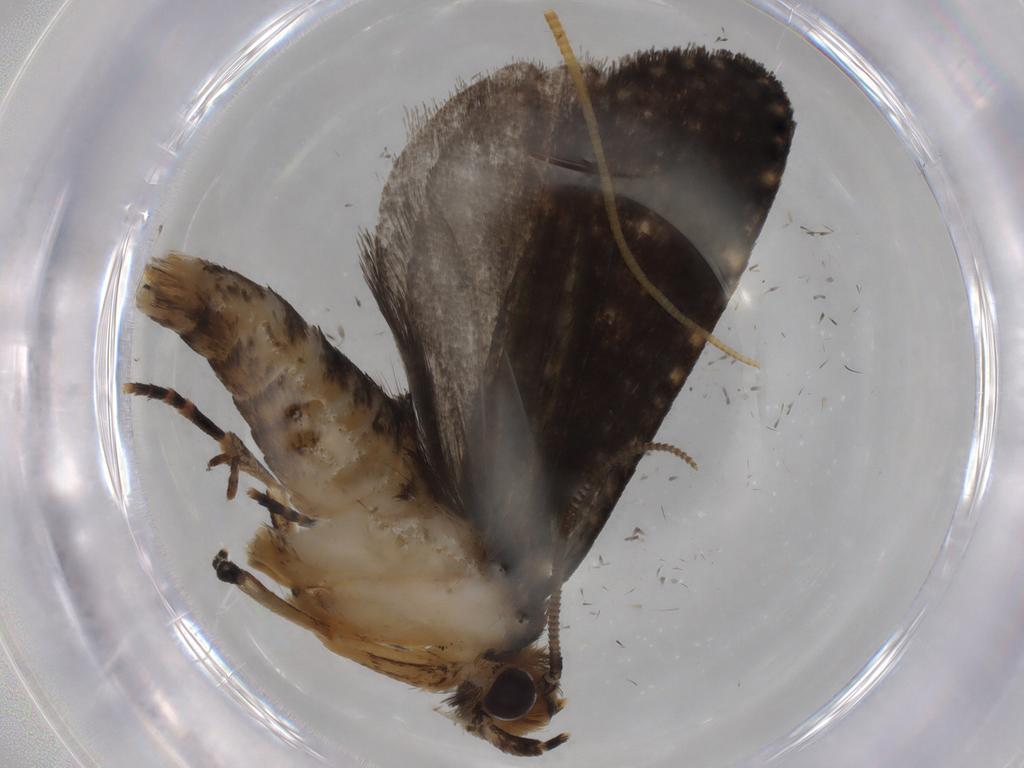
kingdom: Animalia
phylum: Arthropoda
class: Insecta
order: Lepidoptera
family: Tineidae
